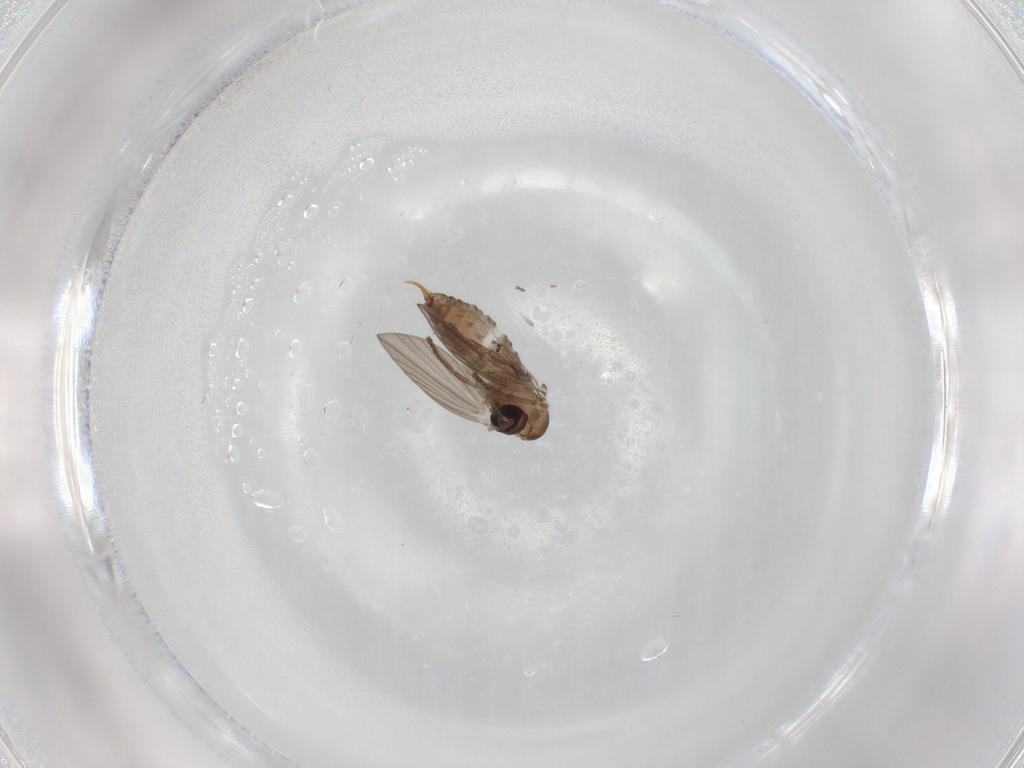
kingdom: Animalia
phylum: Arthropoda
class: Insecta
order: Diptera
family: Psychodidae
